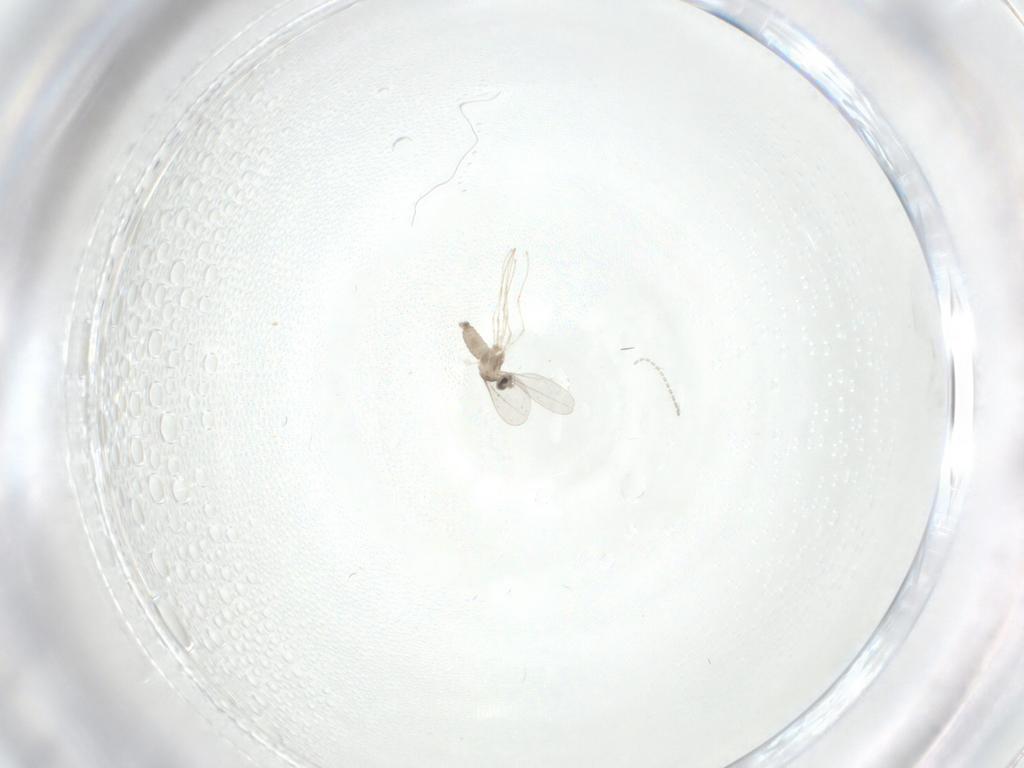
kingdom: Animalia
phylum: Arthropoda
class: Insecta
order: Diptera
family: Cecidomyiidae
